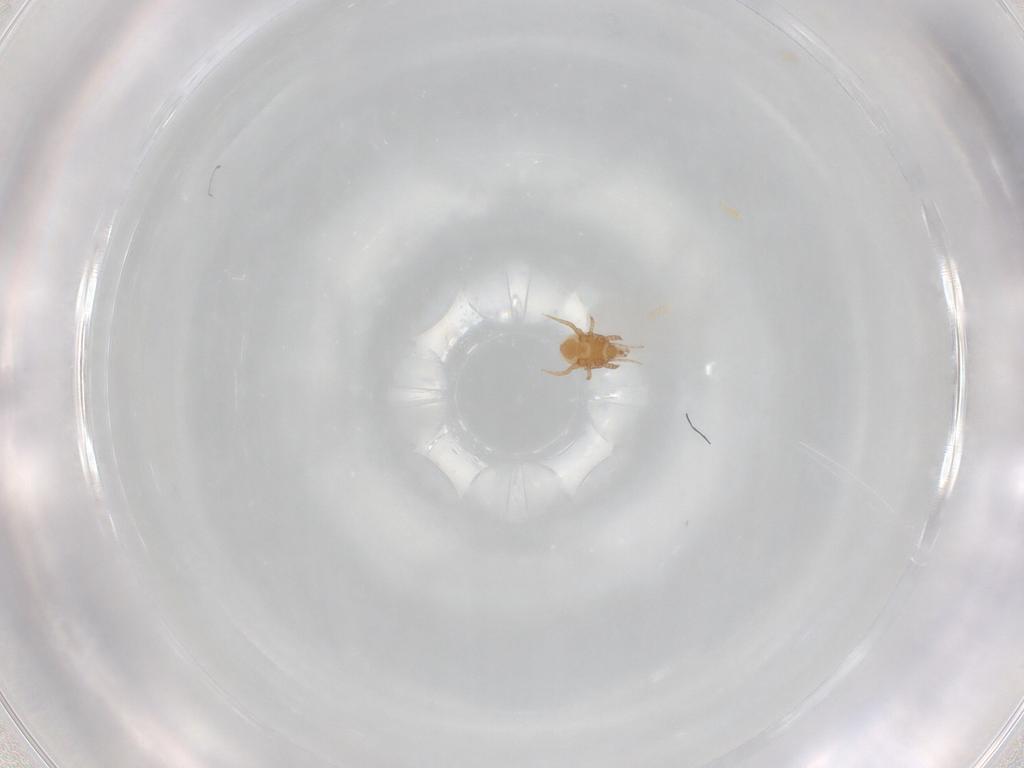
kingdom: Animalia
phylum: Arthropoda
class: Arachnida
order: Mesostigmata
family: Macrochelidae
